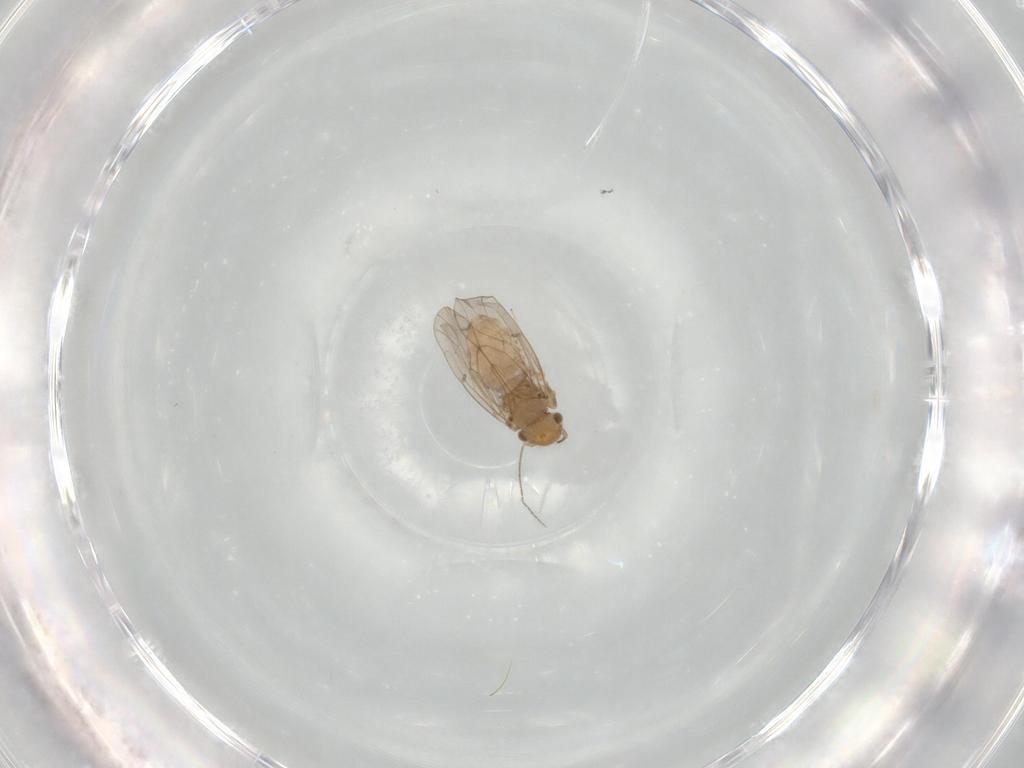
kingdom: Animalia
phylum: Arthropoda
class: Insecta
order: Psocodea
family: Ectopsocidae
